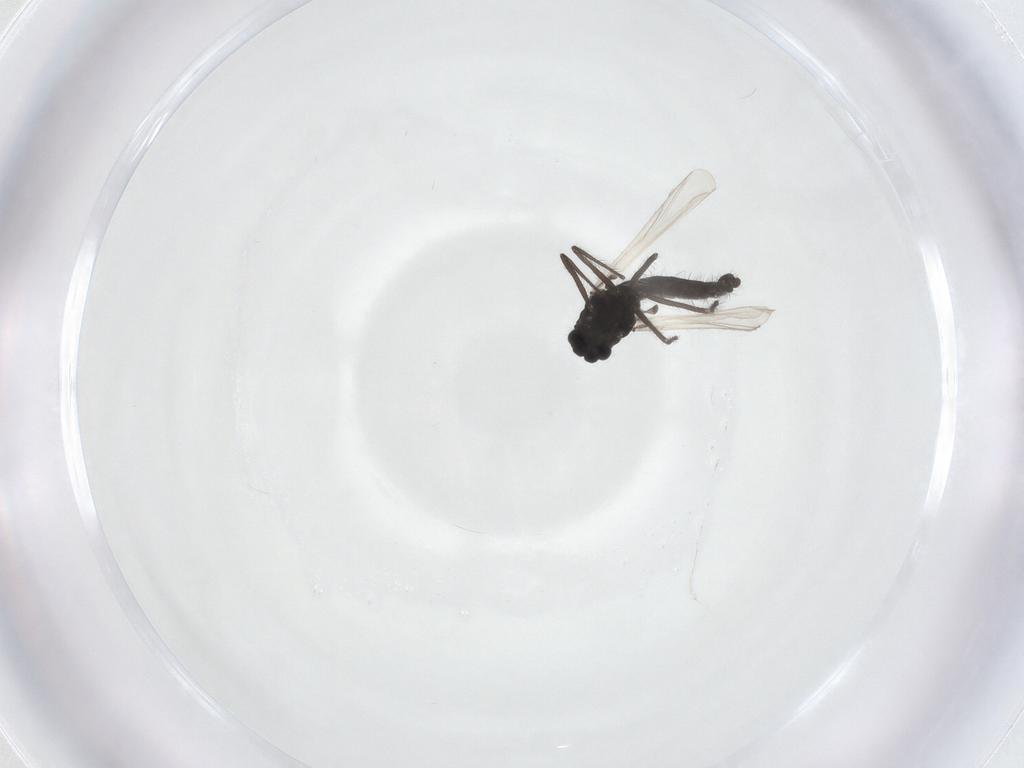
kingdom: Animalia
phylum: Arthropoda
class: Insecta
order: Diptera
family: Chironomidae
